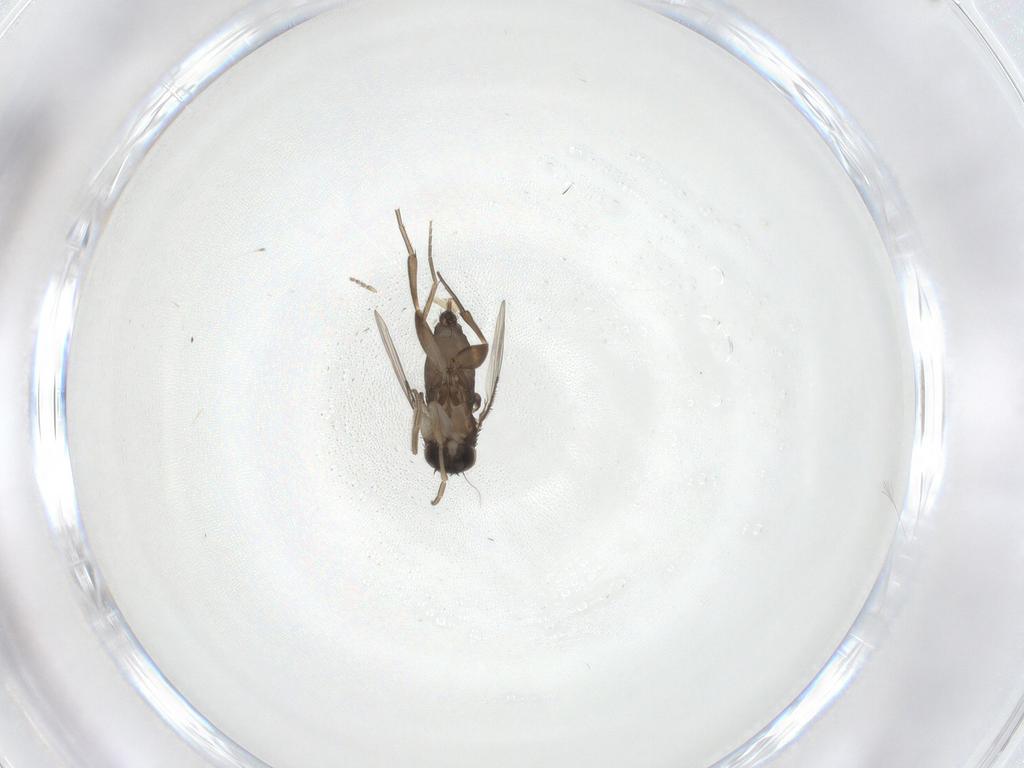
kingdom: Animalia
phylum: Arthropoda
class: Insecta
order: Diptera
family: Phoridae
